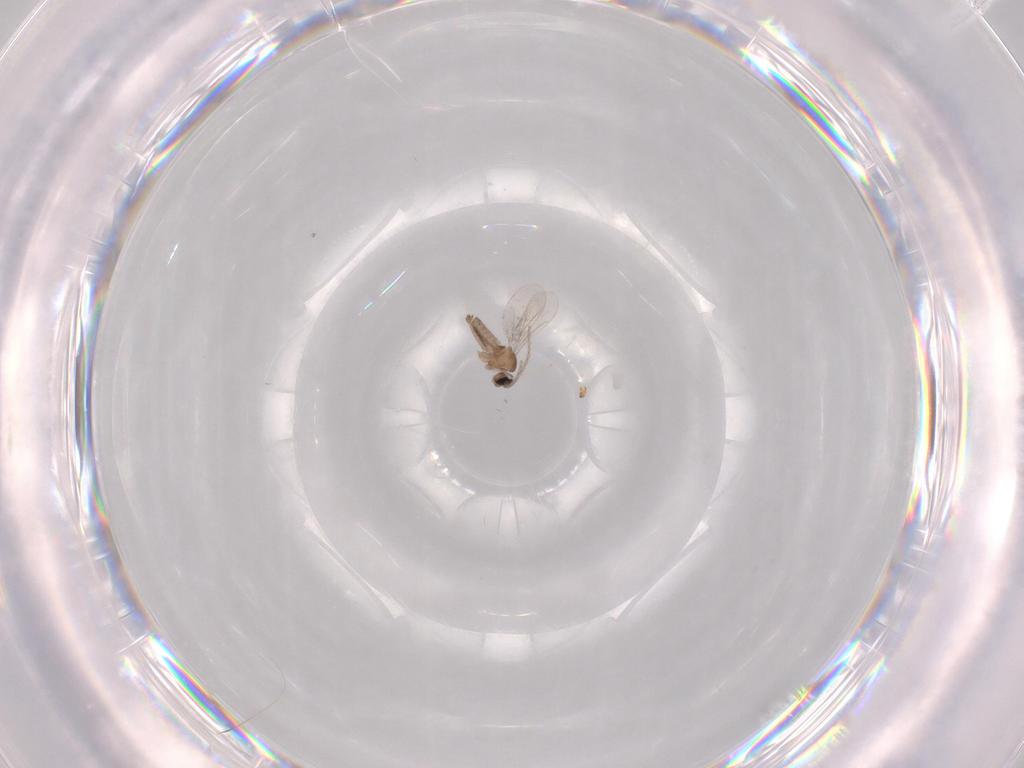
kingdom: Animalia
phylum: Arthropoda
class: Insecta
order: Diptera
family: Cecidomyiidae
